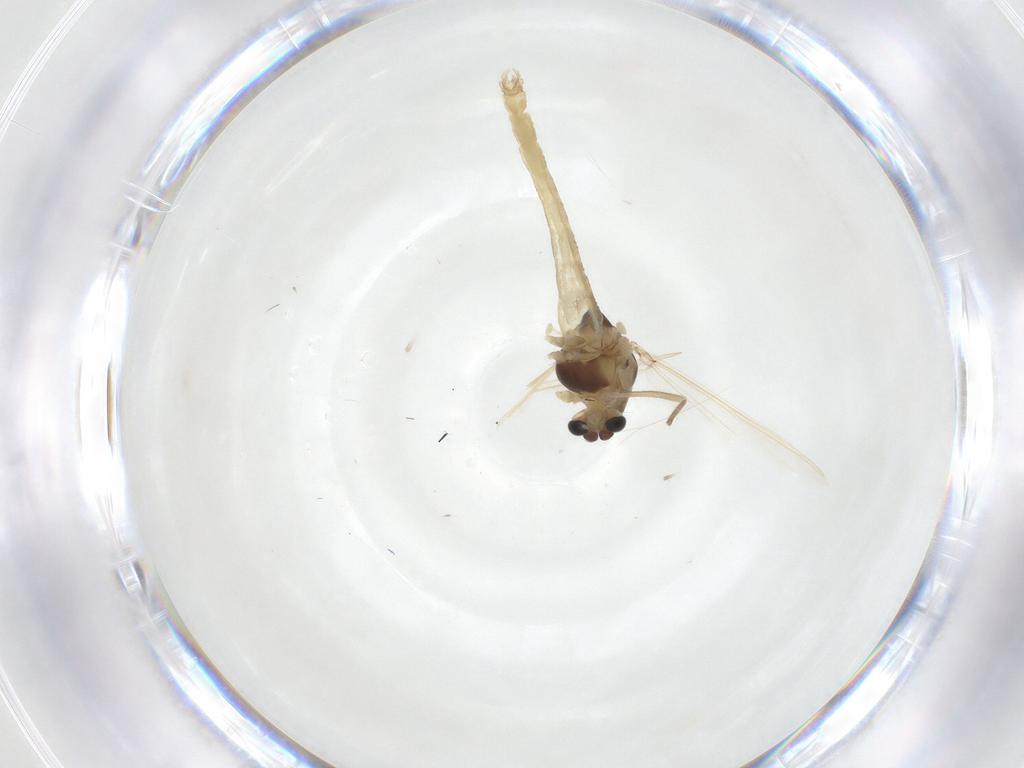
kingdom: Animalia
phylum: Arthropoda
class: Insecta
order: Diptera
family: Chironomidae
